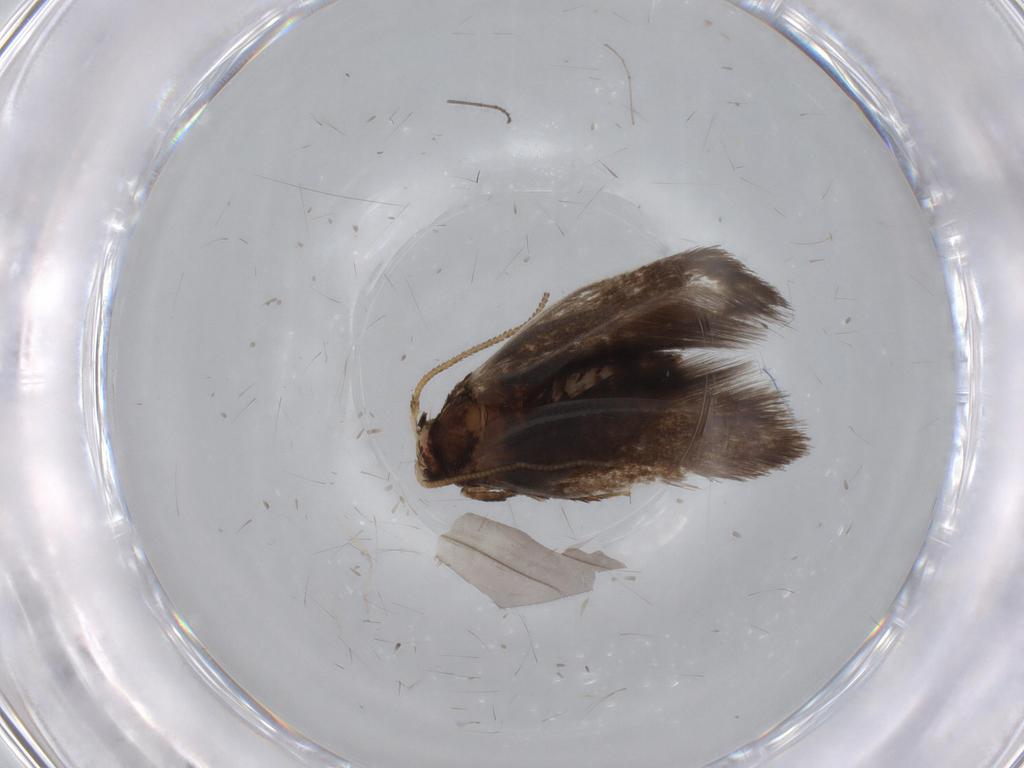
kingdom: Animalia
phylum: Arthropoda
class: Insecta
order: Lepidoptera
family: Nepticulidae
